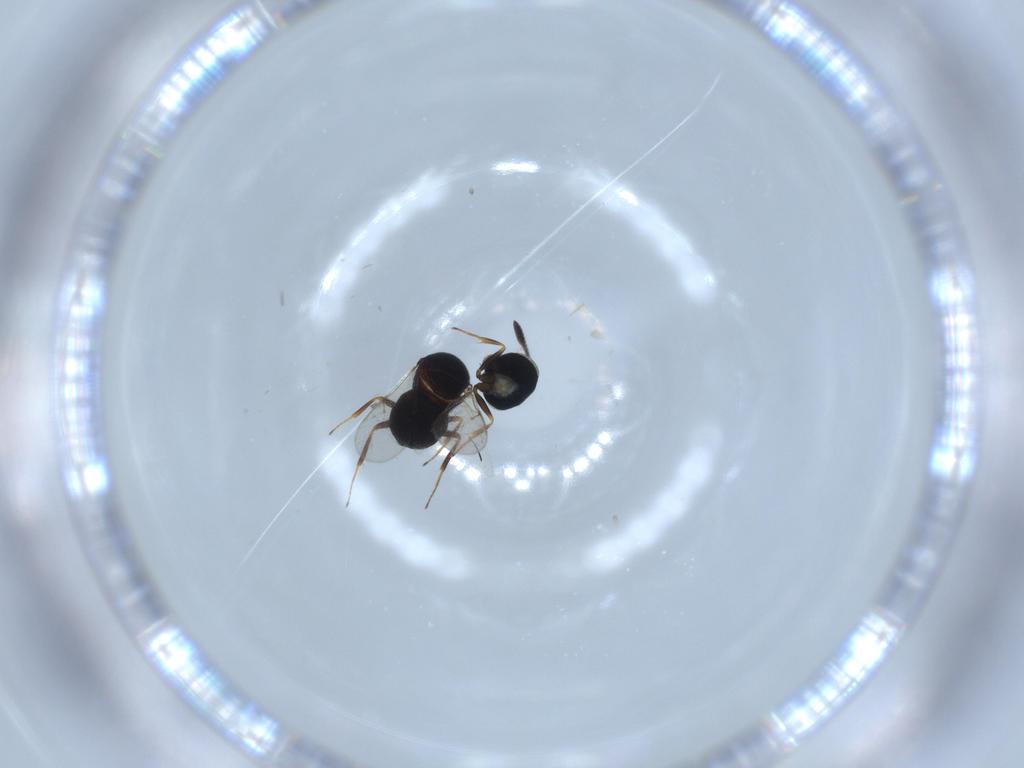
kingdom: Animalia
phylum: Arthropoda
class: Insecta
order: Hymenoptera
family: Scelionidae
